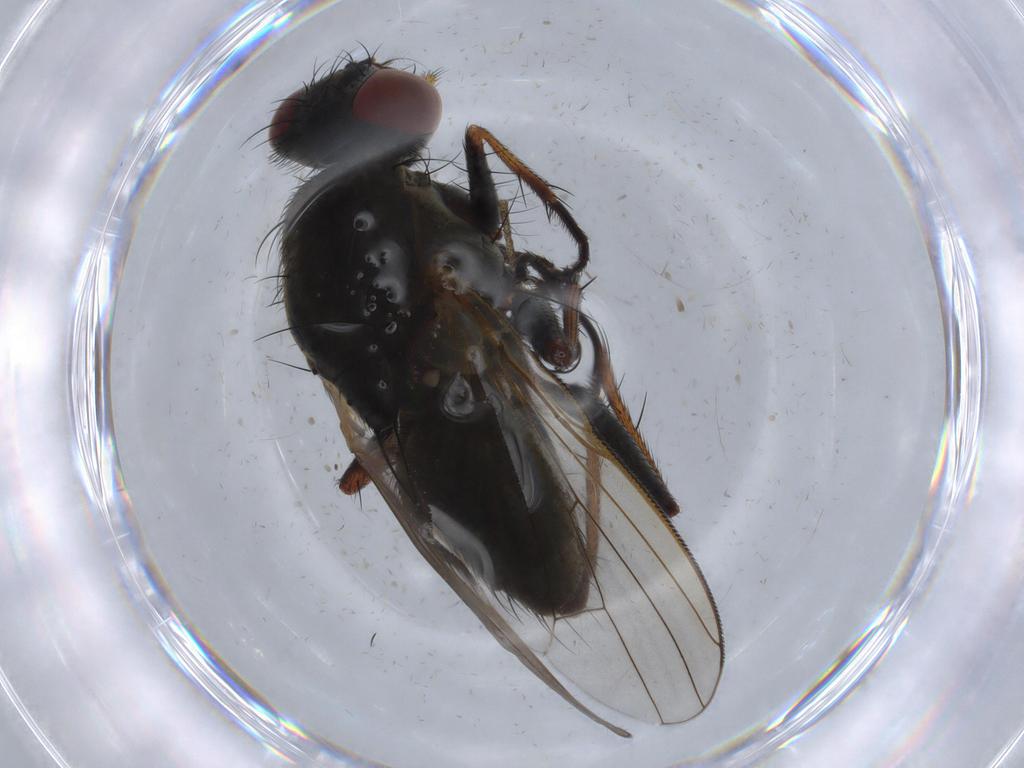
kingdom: Animalia
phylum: Arthropoda
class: Insecta
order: Diptera
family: Muscidae
